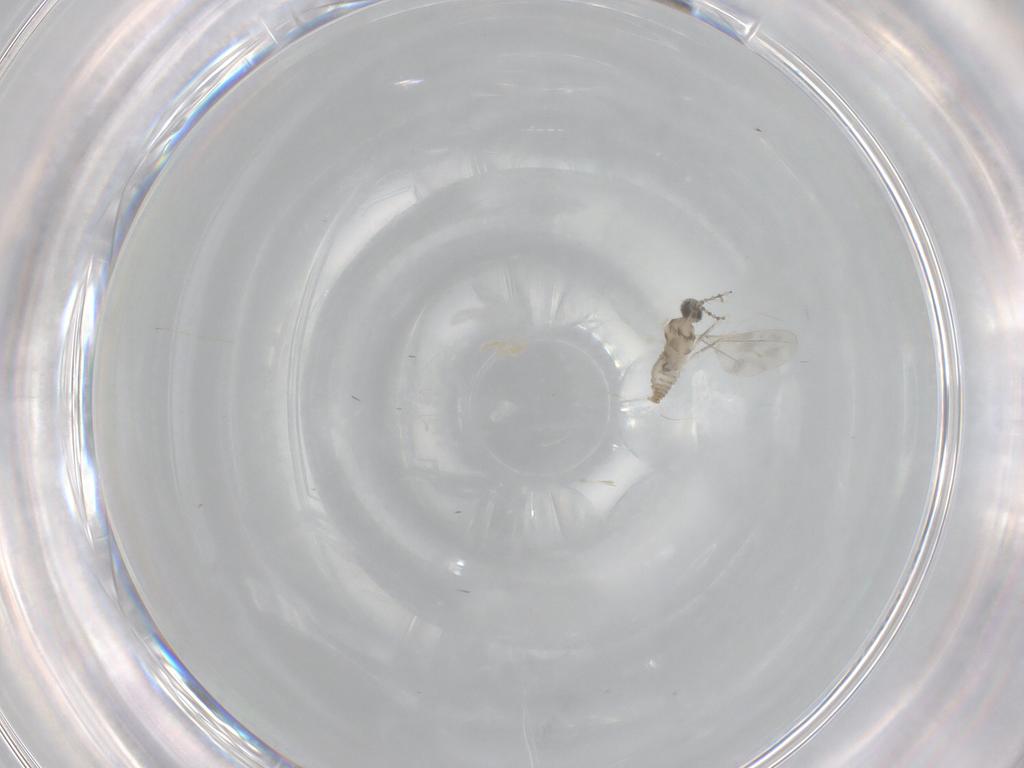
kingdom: Animalia
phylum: Arthropoda
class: Insecta
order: Diptera
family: Cecidomyiidae
